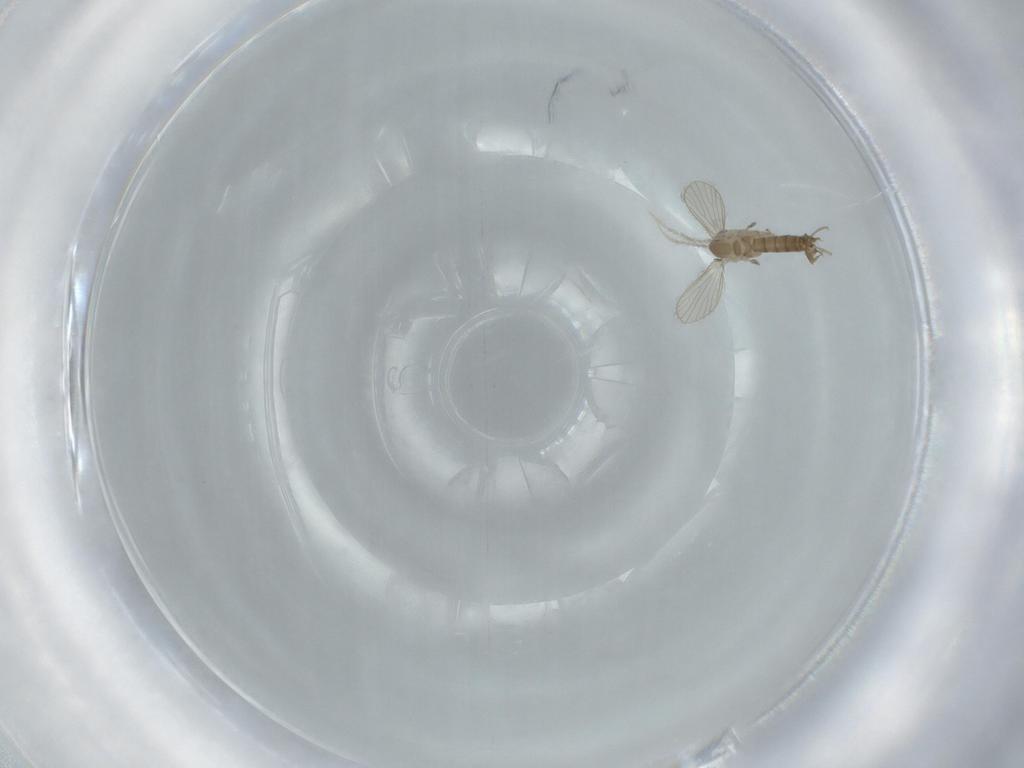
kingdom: Animalia
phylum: Arthropoda
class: Insecta
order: Diptera
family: Psychodidae
